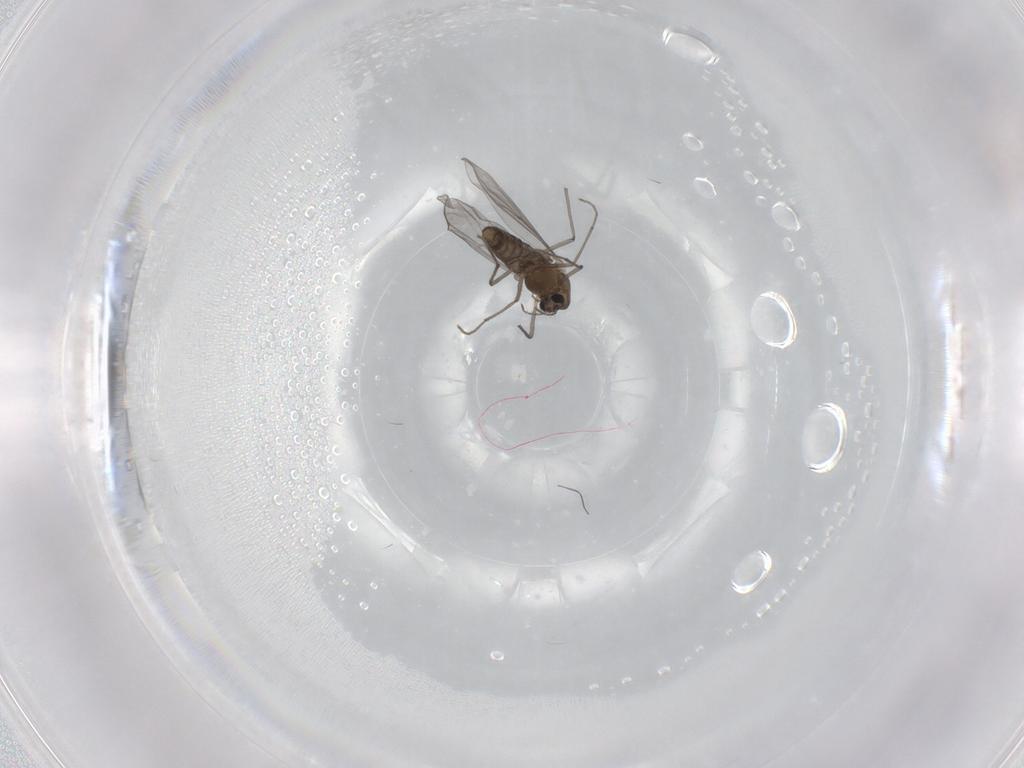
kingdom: Animalia
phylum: Arthropoda
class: Insecta
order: Diptera
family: Chironomidae
